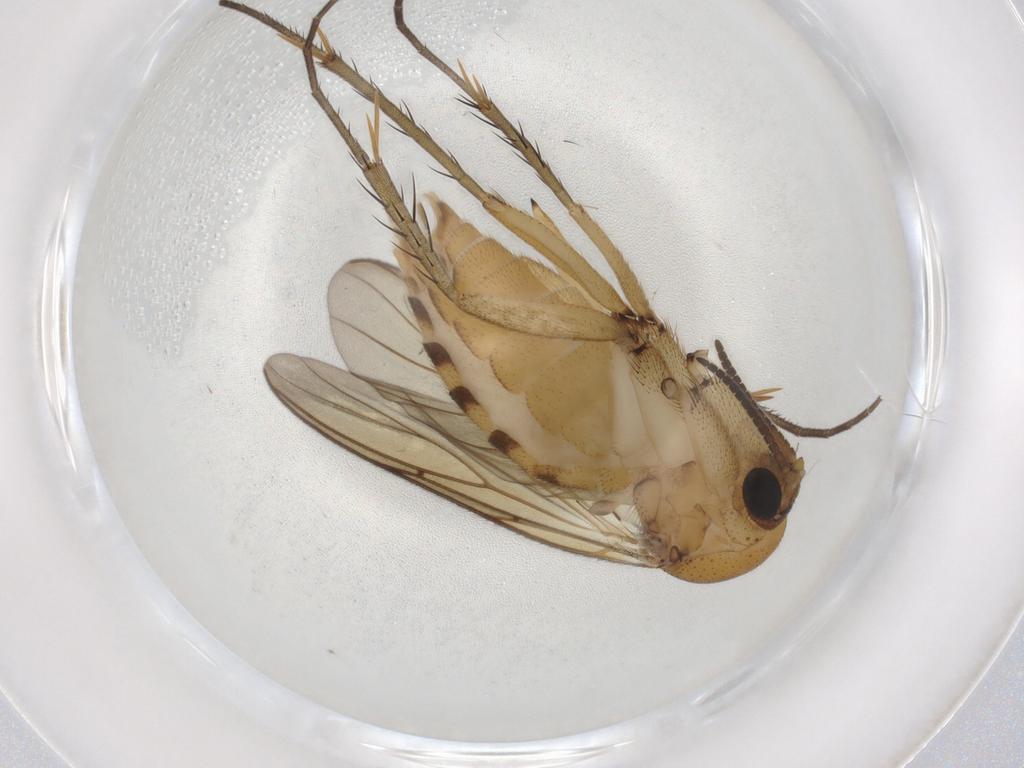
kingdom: Animalia
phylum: Arthropoda
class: Insecta
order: Diptera
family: Mycetophilidae
